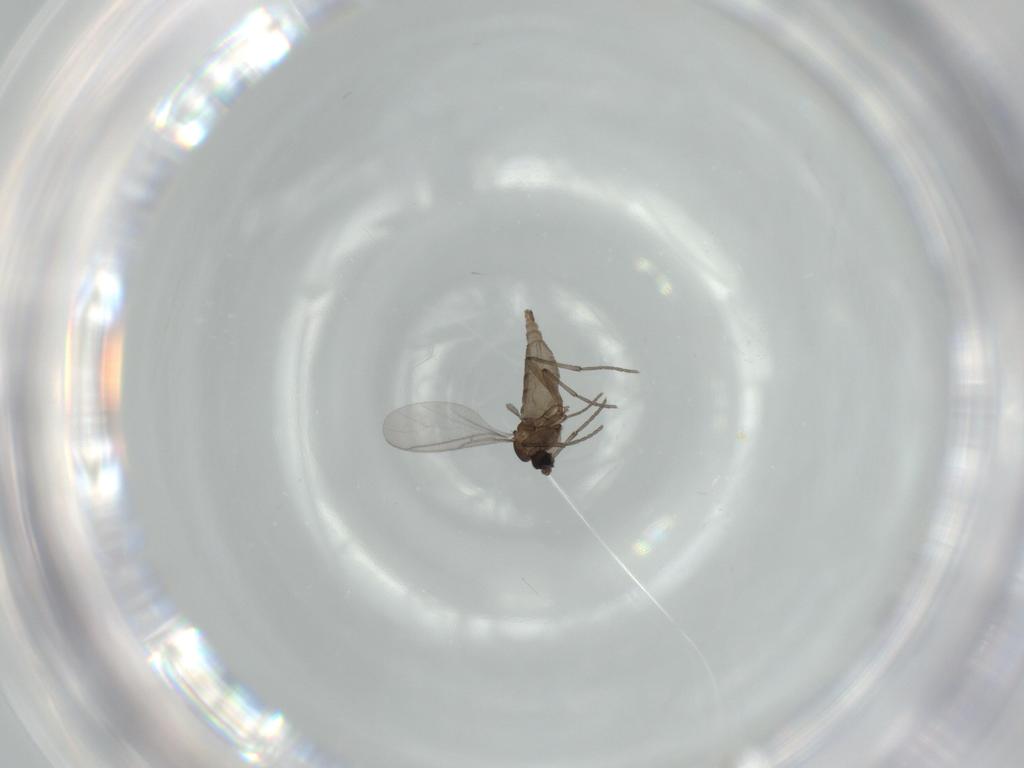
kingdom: Animalia
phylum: Arthropoda
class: Insecta
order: Diptera
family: Sciaridae
